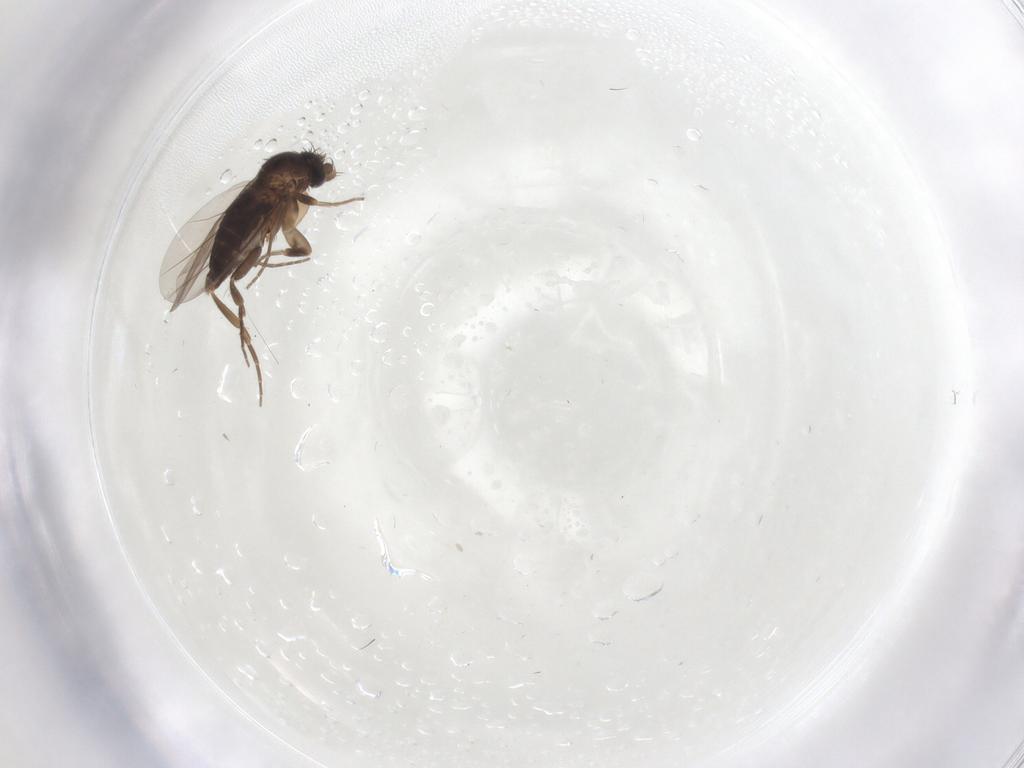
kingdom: Animalia
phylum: Arthropoda
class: Insecta
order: Diptera
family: Phoridae
